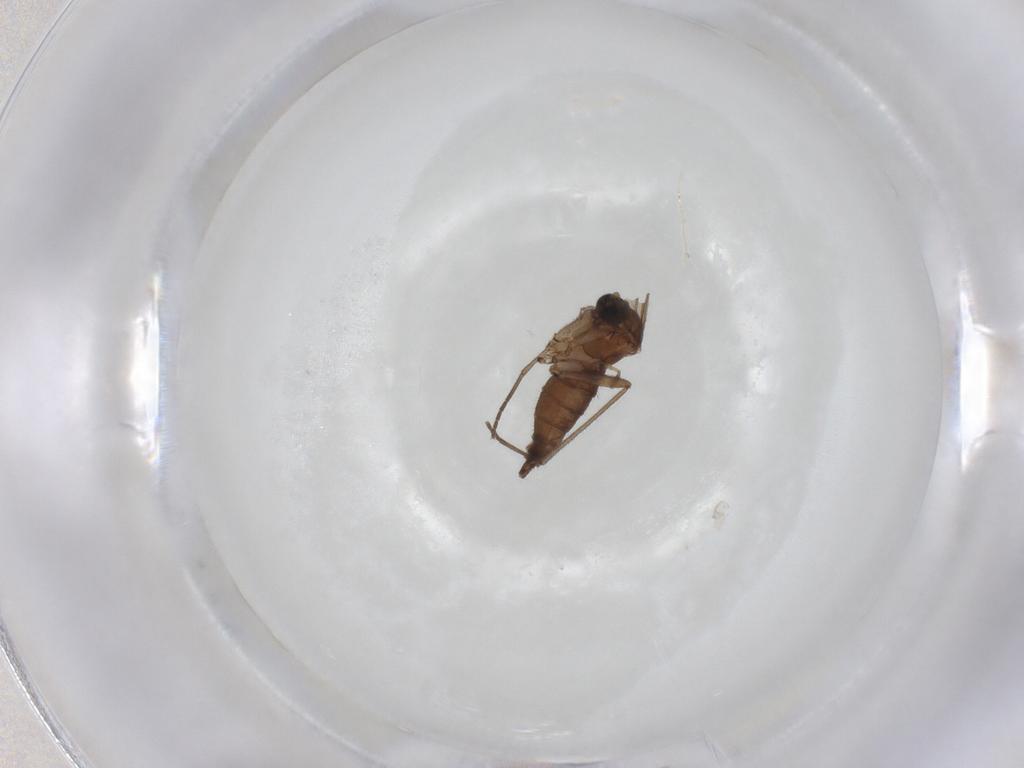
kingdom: Animalia
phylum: Arthropoda
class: Insecta
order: Diptera
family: Sciaridae
